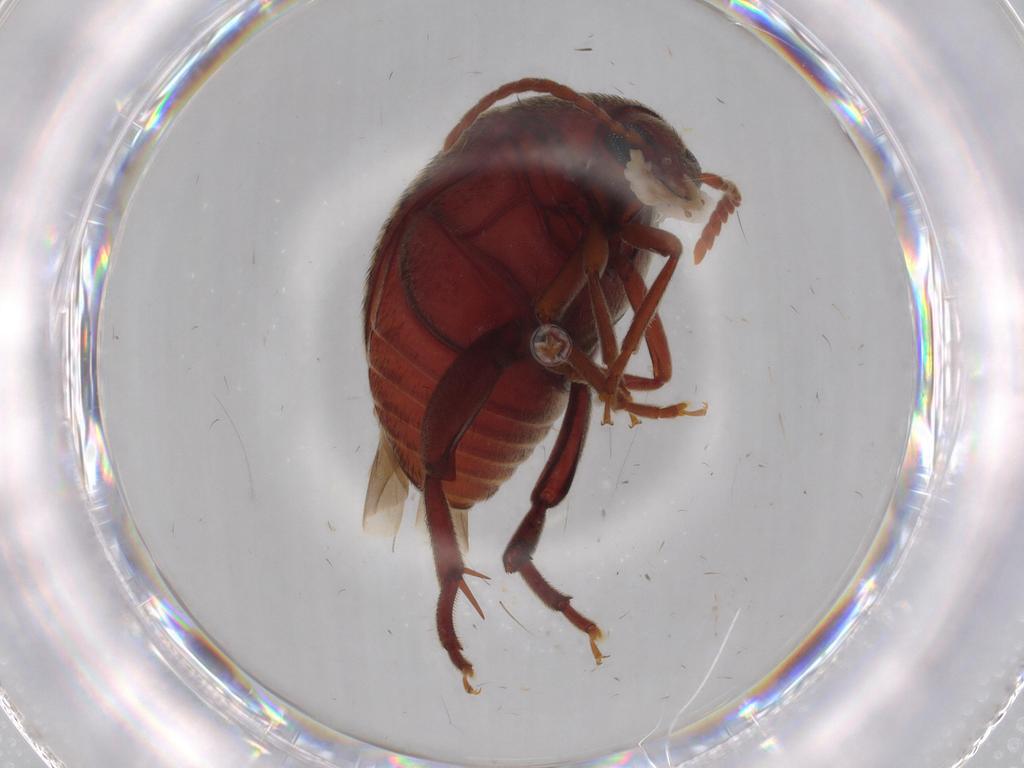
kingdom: Animalia
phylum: Arthropoda
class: Insecta
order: Coleoptera
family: Chrysomelidae
